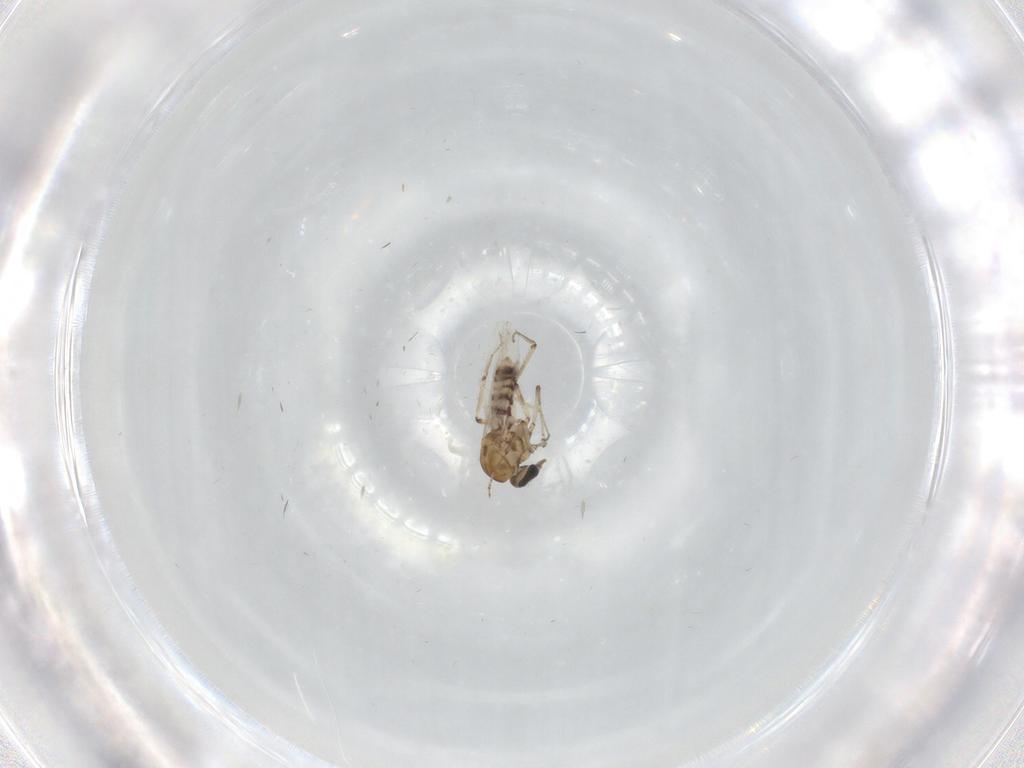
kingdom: Animalia
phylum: Arthropoda
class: Insecta
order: Diptera
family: Ceratopogonidae
